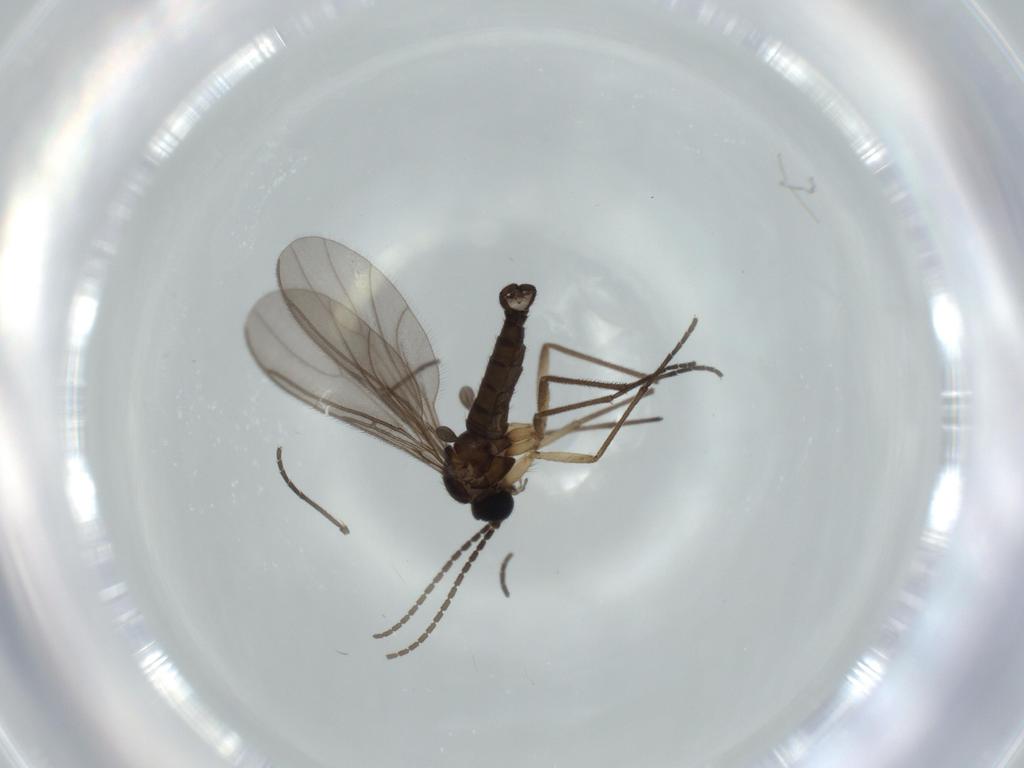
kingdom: Animalia
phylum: Arthropoda
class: Insecta
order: Diptera
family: Sciaridae
